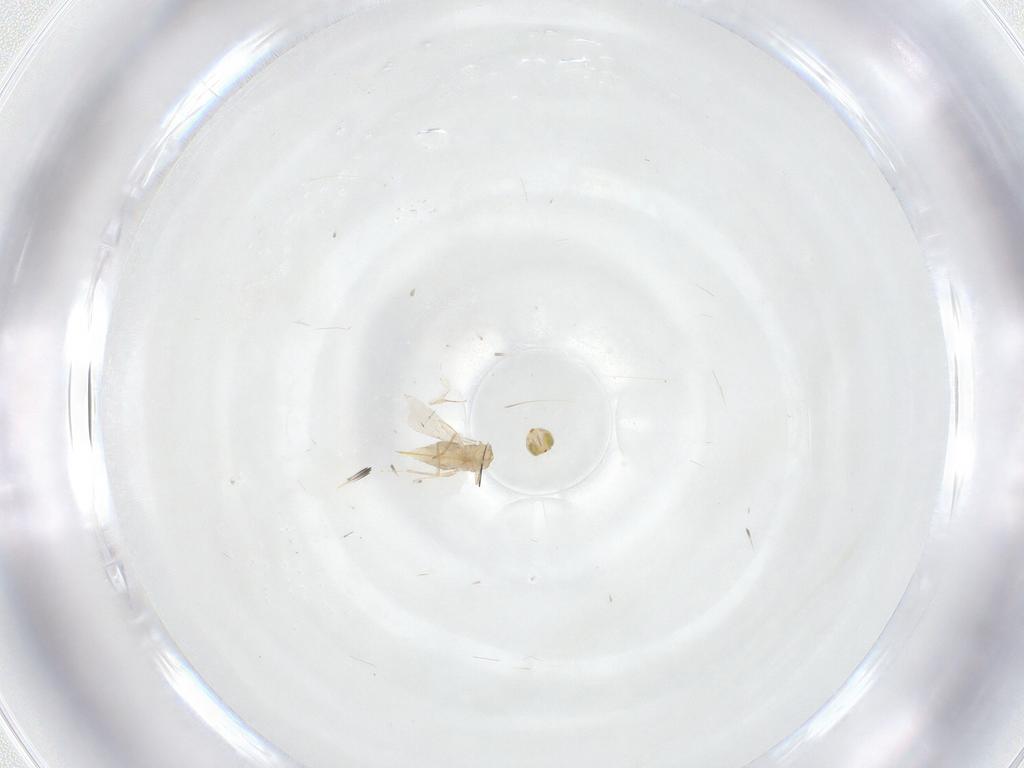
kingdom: Animalia
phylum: Arthropoda
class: Insecta
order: Hymenoptera
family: Aphelinidae
